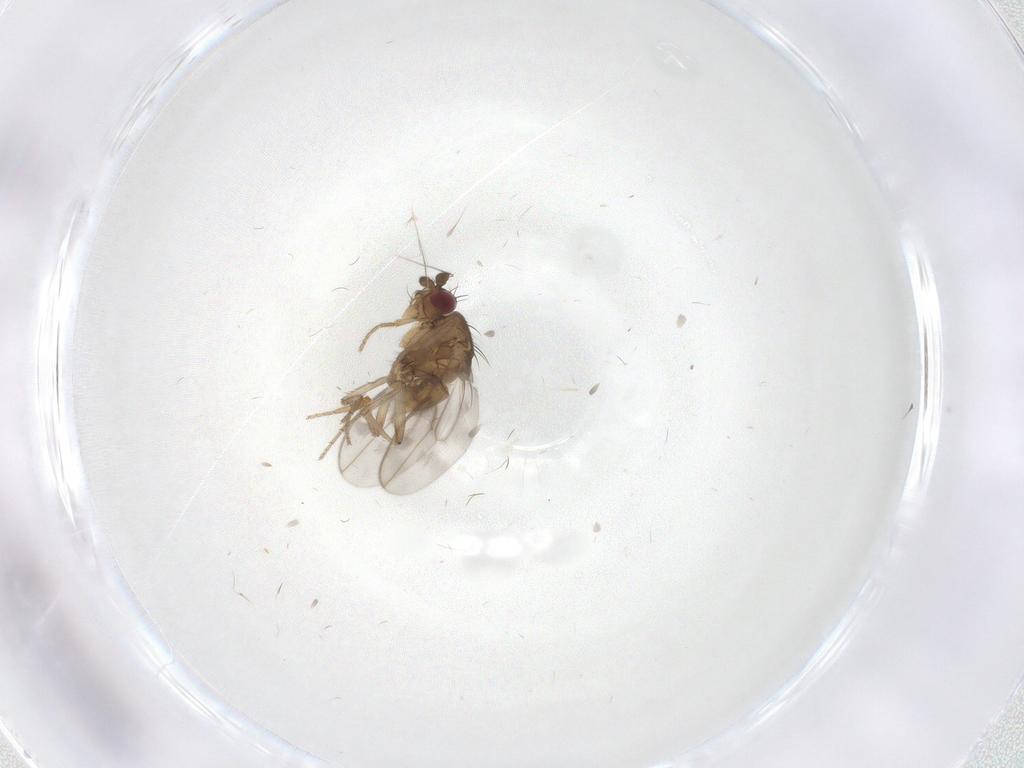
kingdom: Animalia
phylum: Arthropoda
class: Insecta
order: Diptera
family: Sphaeroceridae
